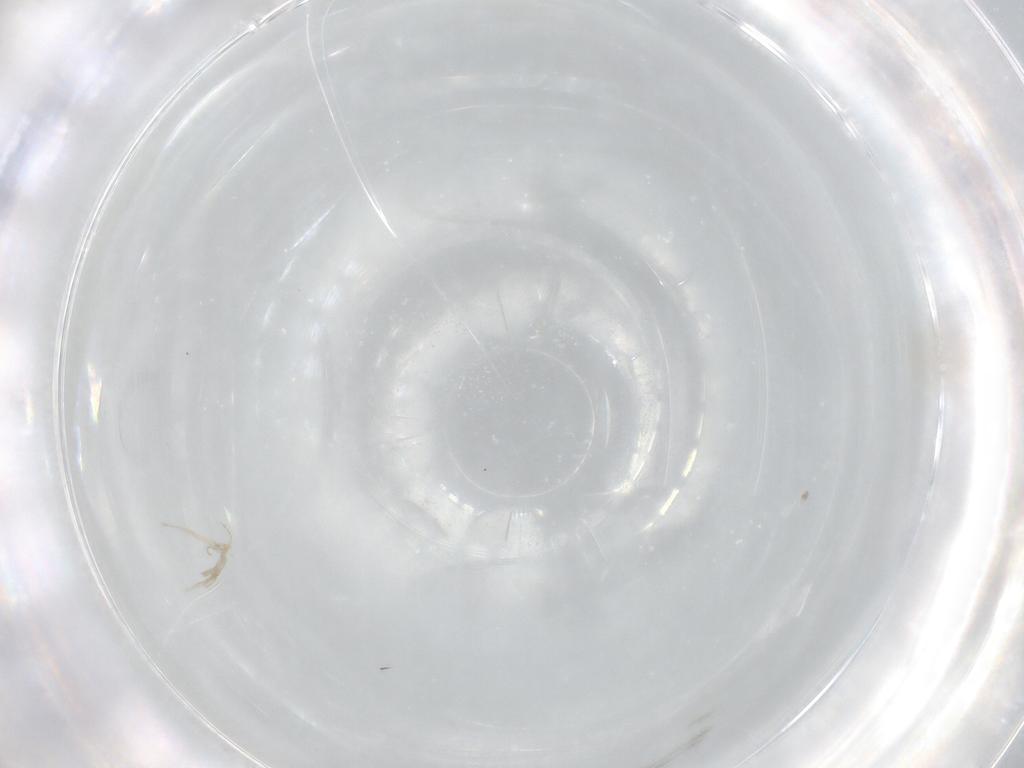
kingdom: Animalia
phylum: Arthropoda
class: Insecta
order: Hymenoptera
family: Mymaridae
